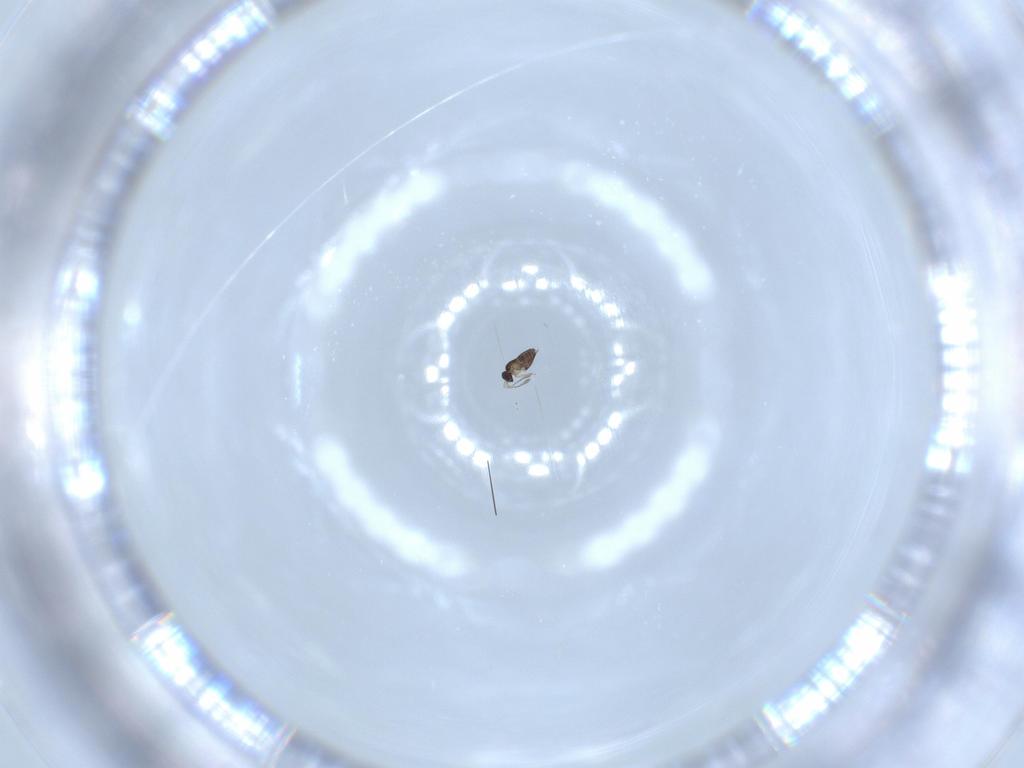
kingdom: Animalia
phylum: Arthropoda
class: Insecta
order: Hymenoptera
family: Mymaridae
